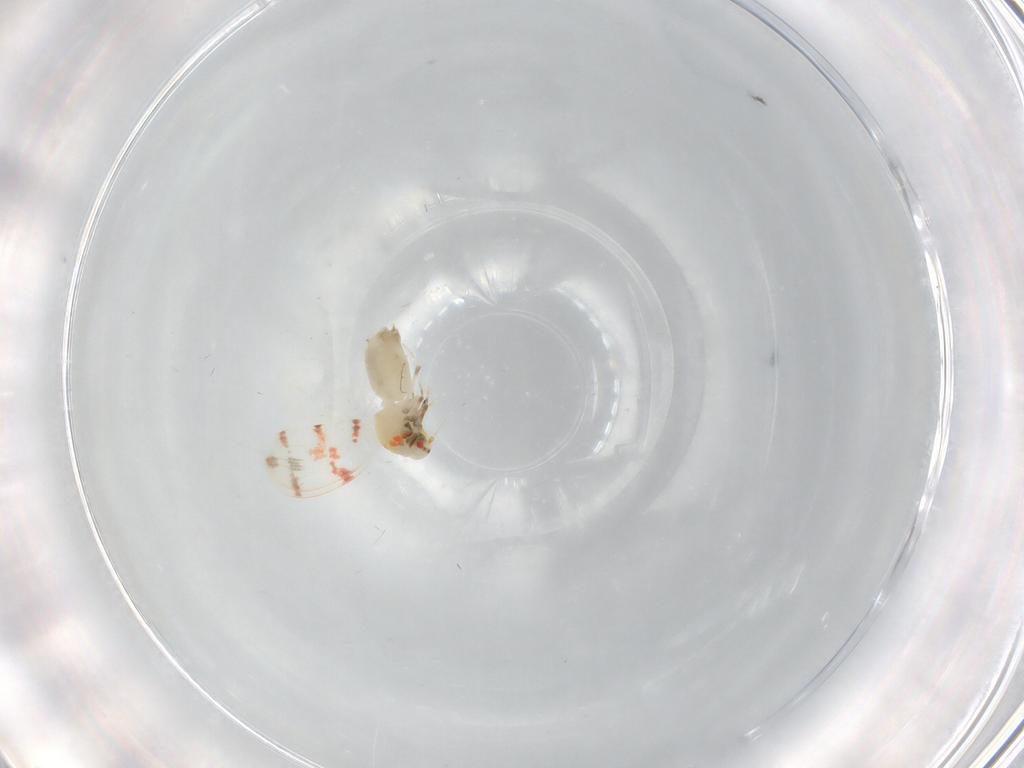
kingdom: Animalia
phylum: Arthropoda
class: Insecta
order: Hemiptera
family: Aleyrodidae
